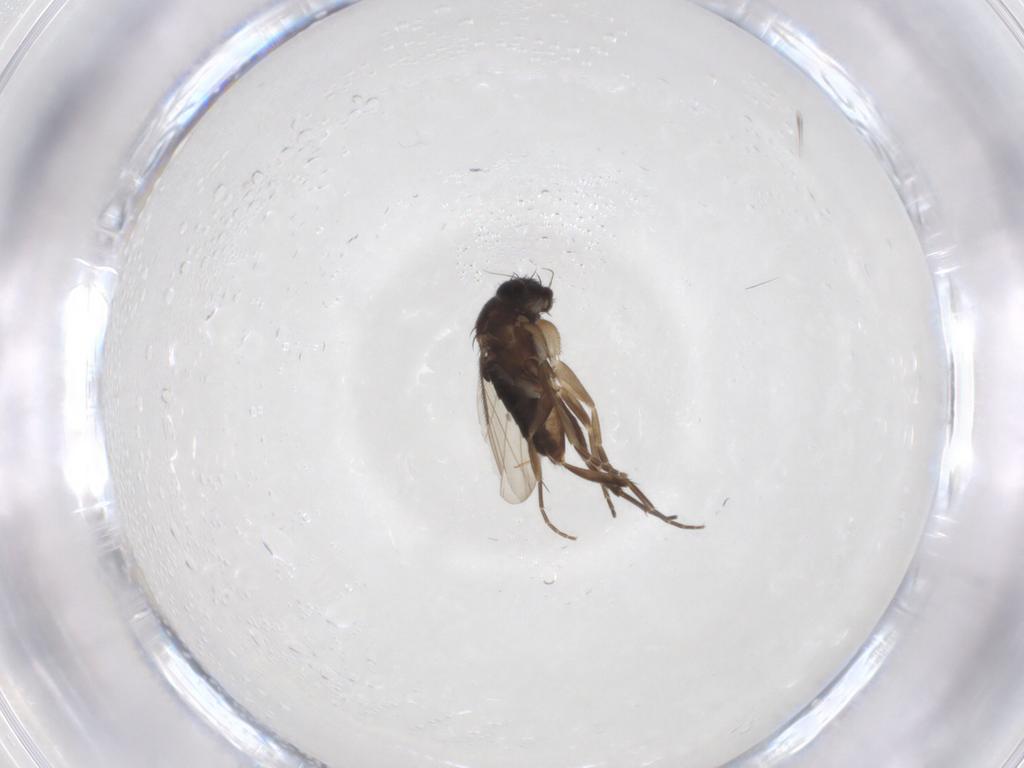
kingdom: Animalia
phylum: Arthropoda
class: Insecta
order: Diptera
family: Phoridae
